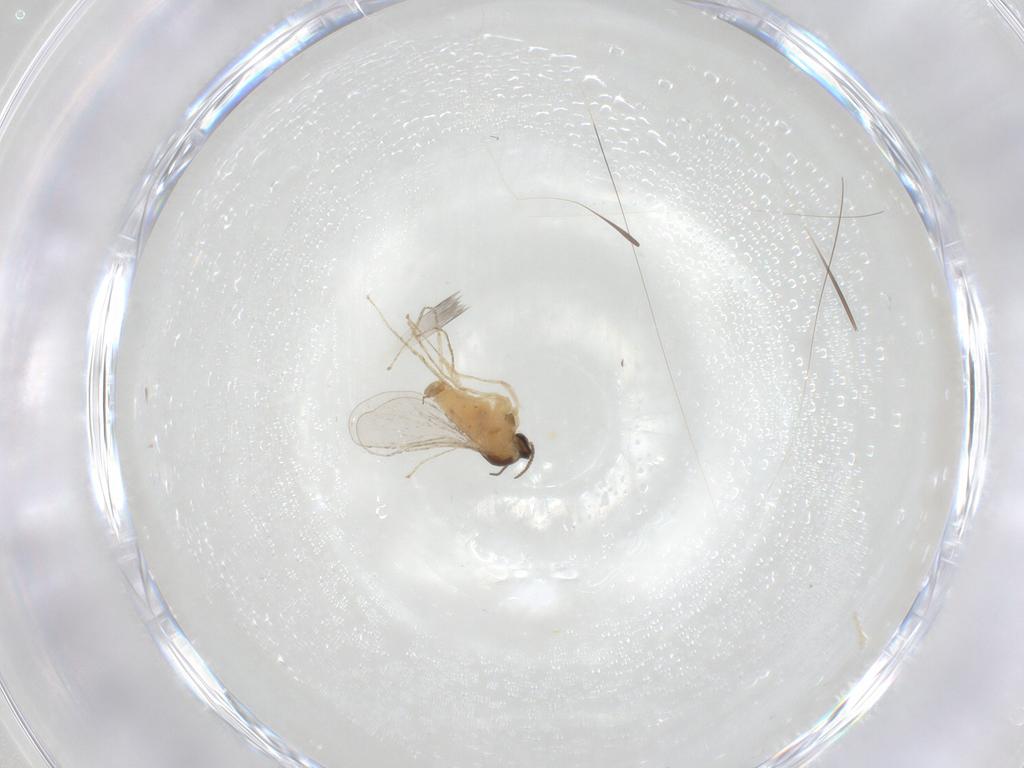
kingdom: Animalia
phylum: Arthropoda
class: Insecta
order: Diptera
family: Cecidomyiidae
